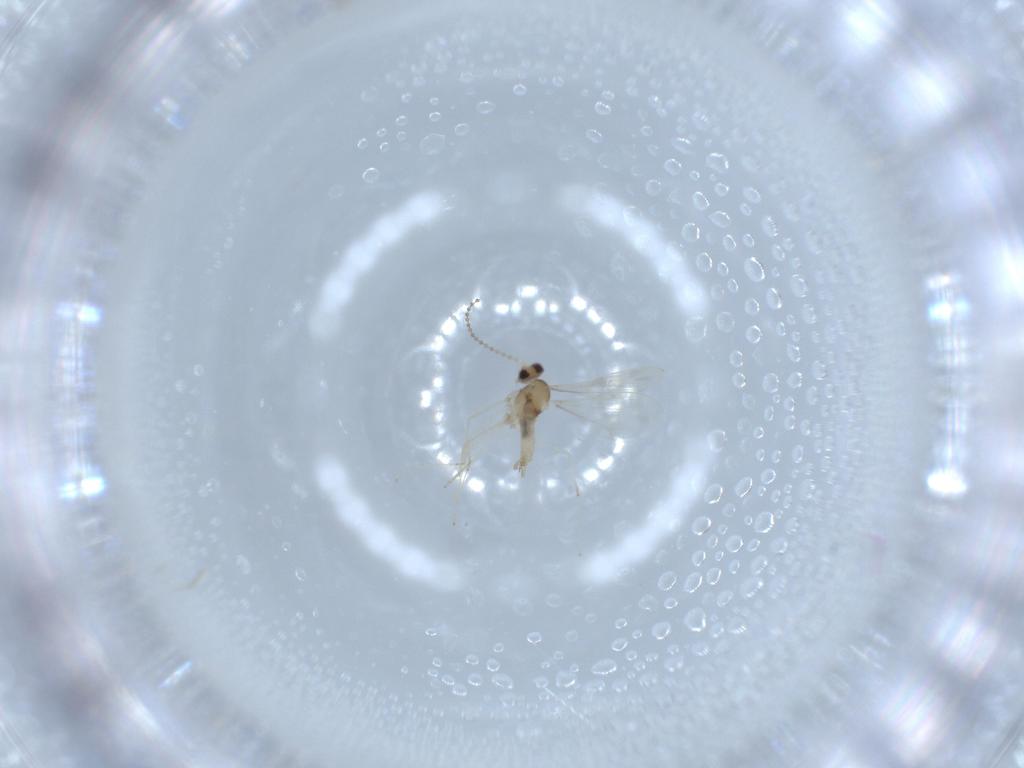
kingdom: Animalia
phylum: Arthropoda
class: Insecta
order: Diptera
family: Cecidomyiidae
